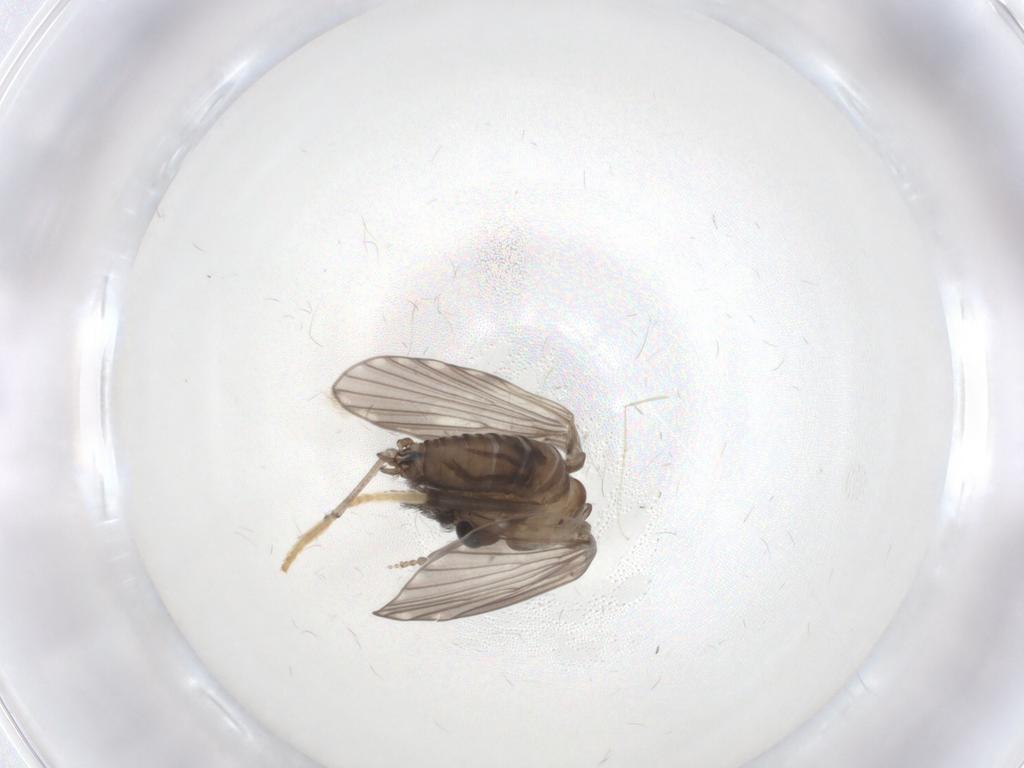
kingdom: Animalia
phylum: Arthropoda
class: Insecta
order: Diptera
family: Psychodidae
